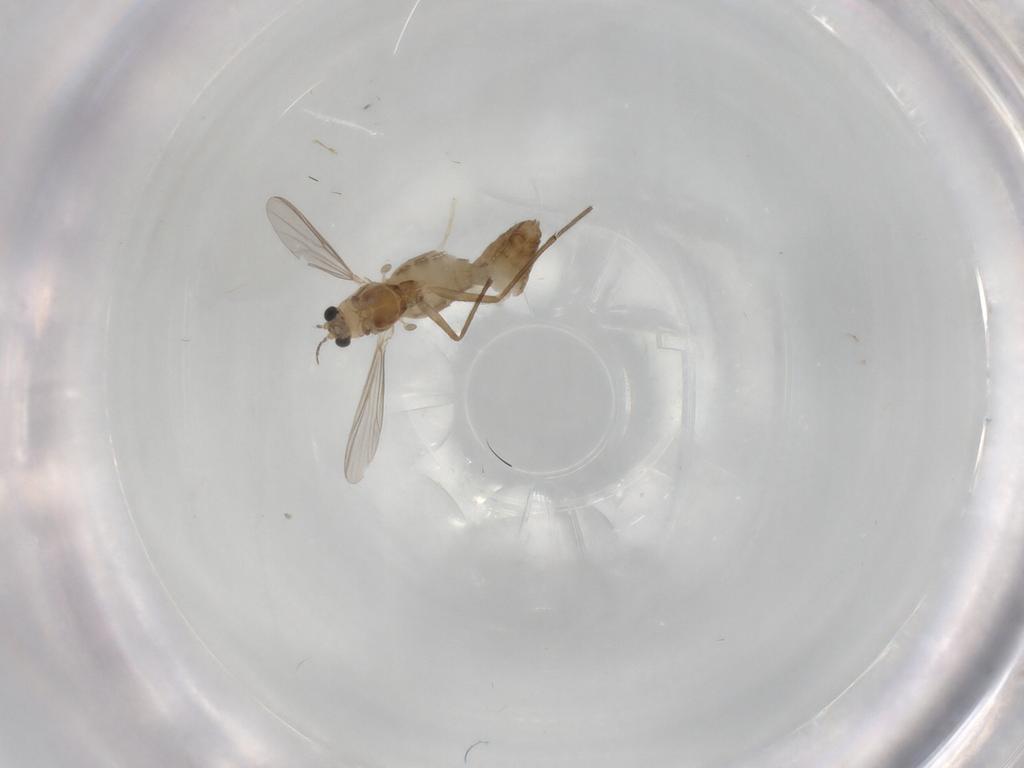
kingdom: Animalia
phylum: Arthropoda
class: Insecta
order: Diptera
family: Chironomidae
